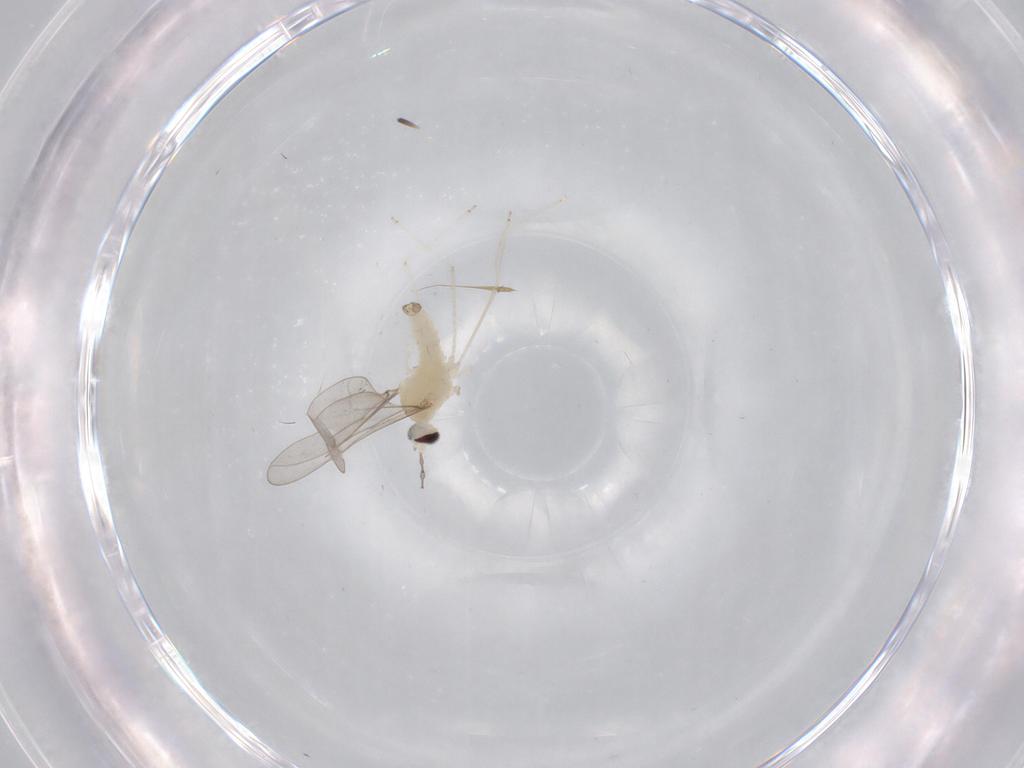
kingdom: Animalia
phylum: Arthropoda
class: Insecta
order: Diptera
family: Cecidomyiidae
